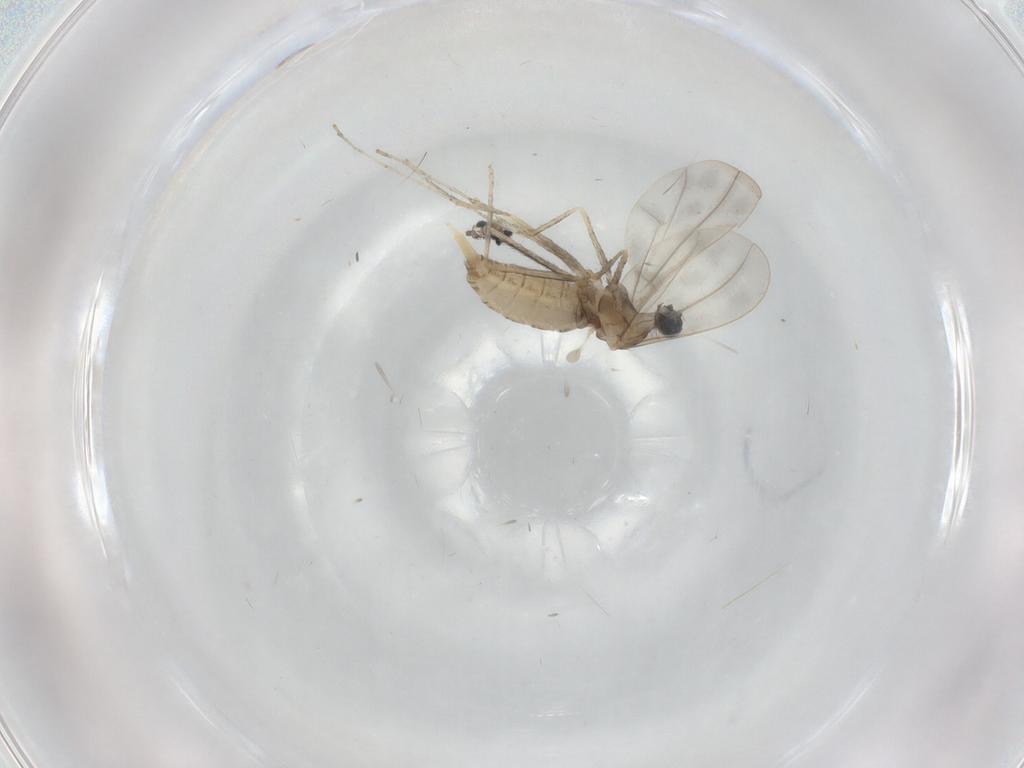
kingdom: Animalia
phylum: Arthropoda
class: Insecta
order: Diptera
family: Cecidomyiidae
